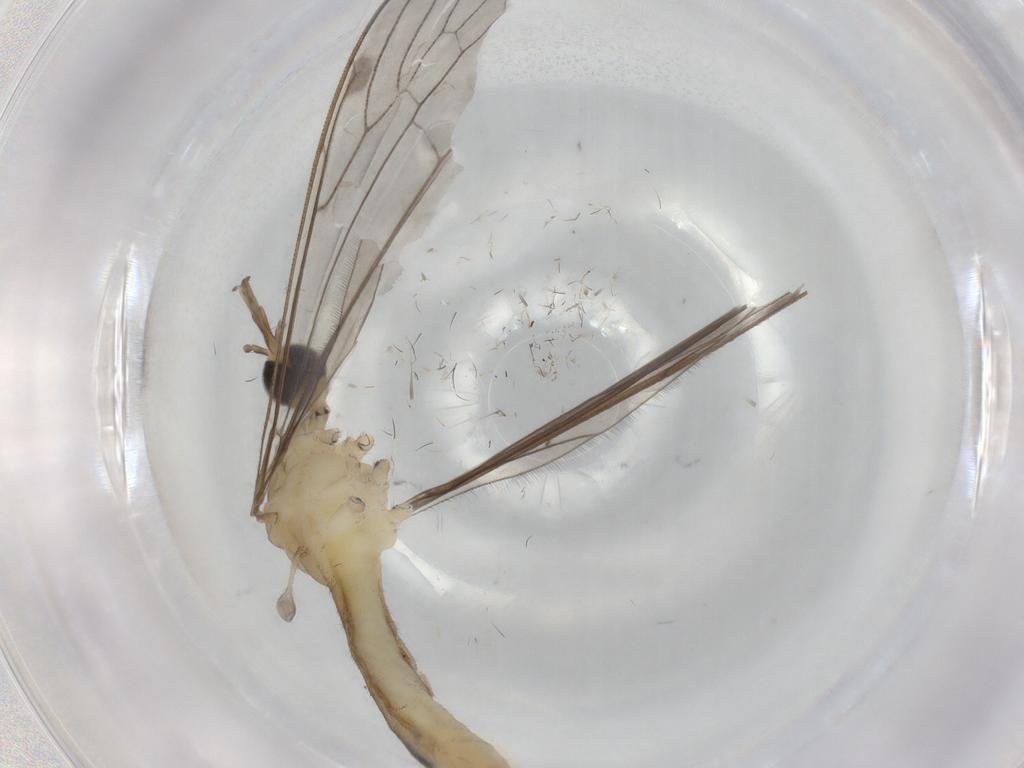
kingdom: Animalia
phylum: Arthropoda
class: Insecta
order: Diptera
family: Limoniidae
